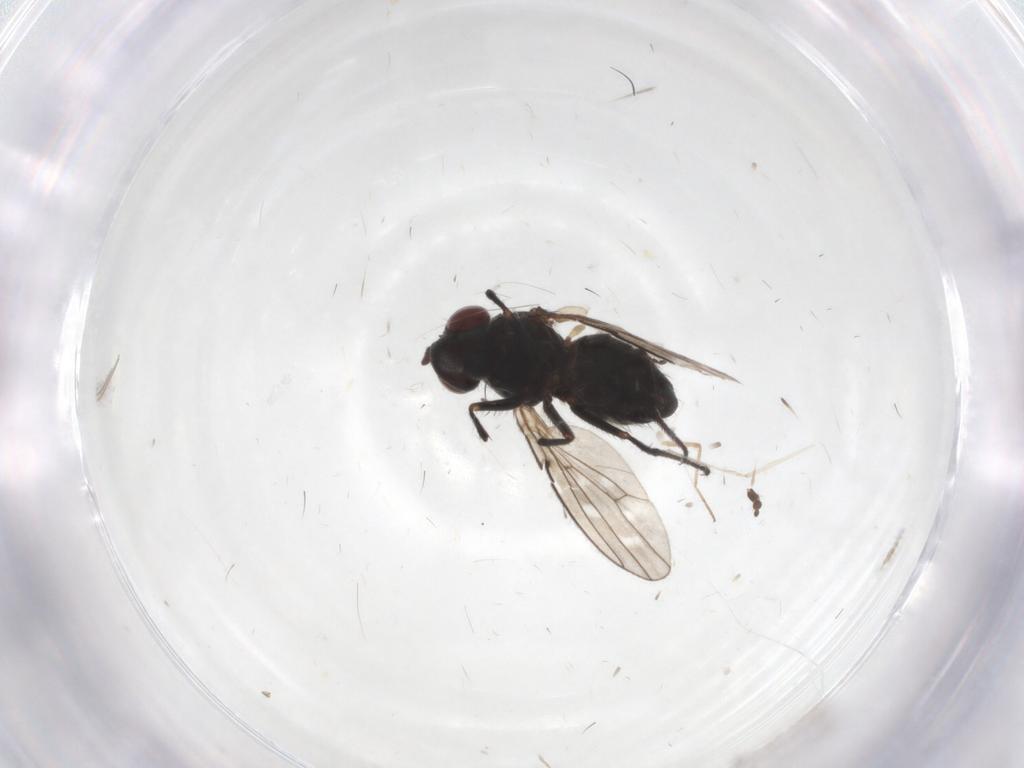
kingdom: Animalia
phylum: Arthropoda
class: Insecta
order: Diptera
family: Ephydridae
